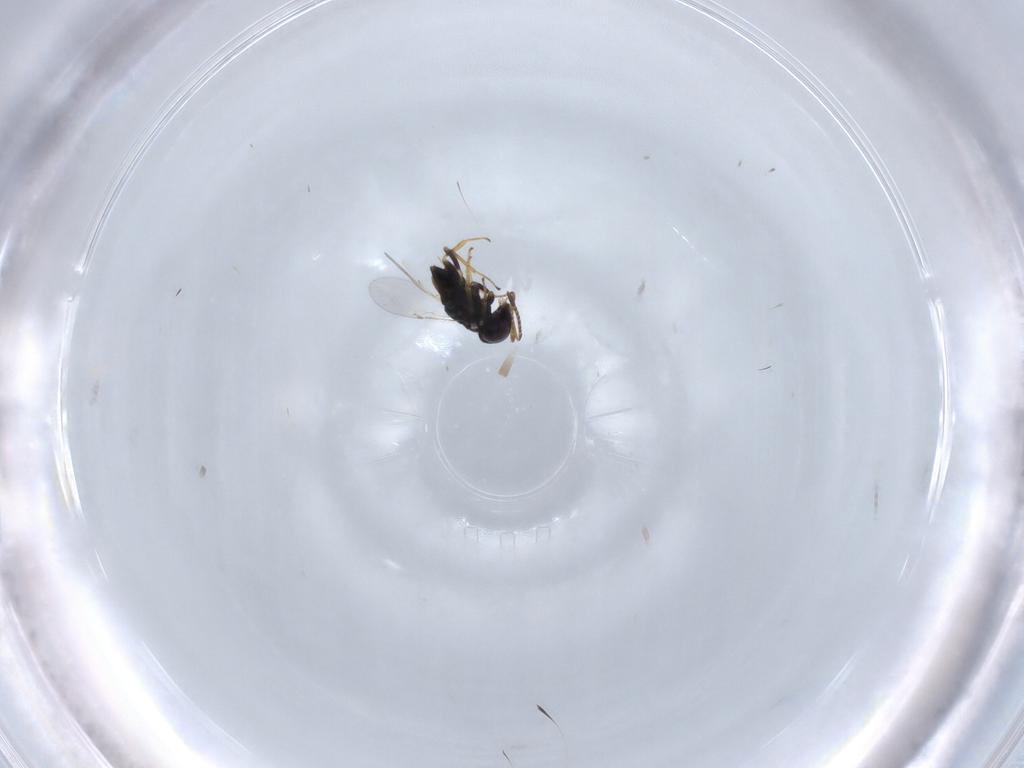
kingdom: Animalia
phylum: Arthropoda
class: Insecta
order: Hymenoptera
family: Encyrtidae
